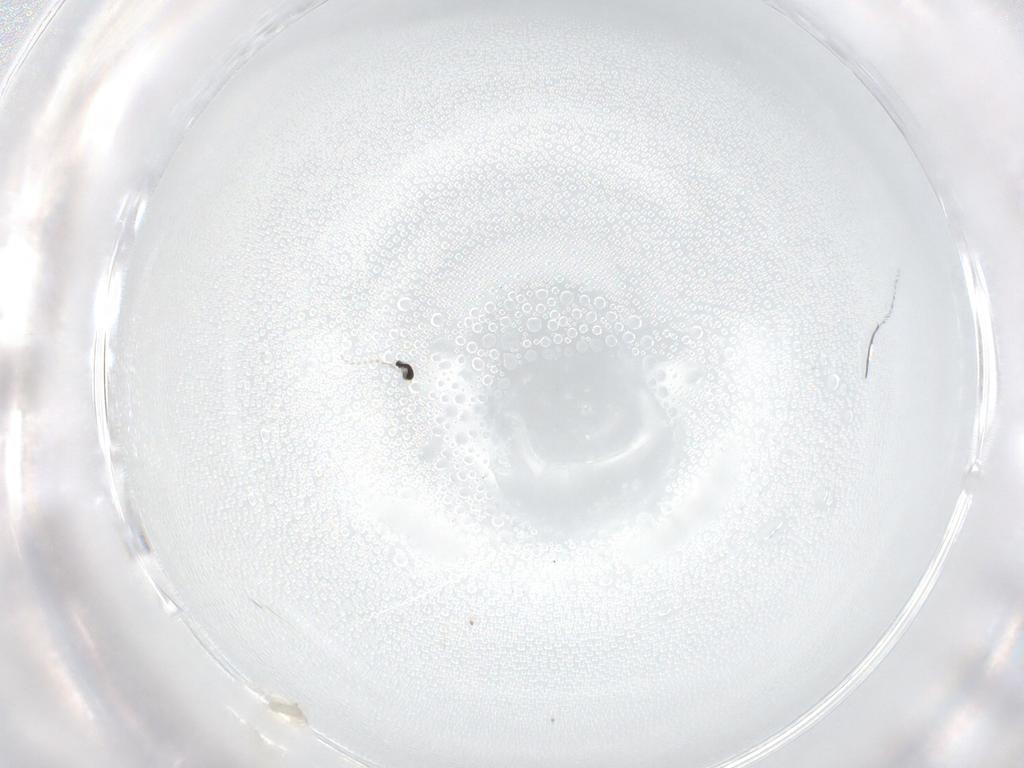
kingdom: Animalia
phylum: Arthropoda
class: Insecta
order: Diptera
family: Cecidomyiidae
